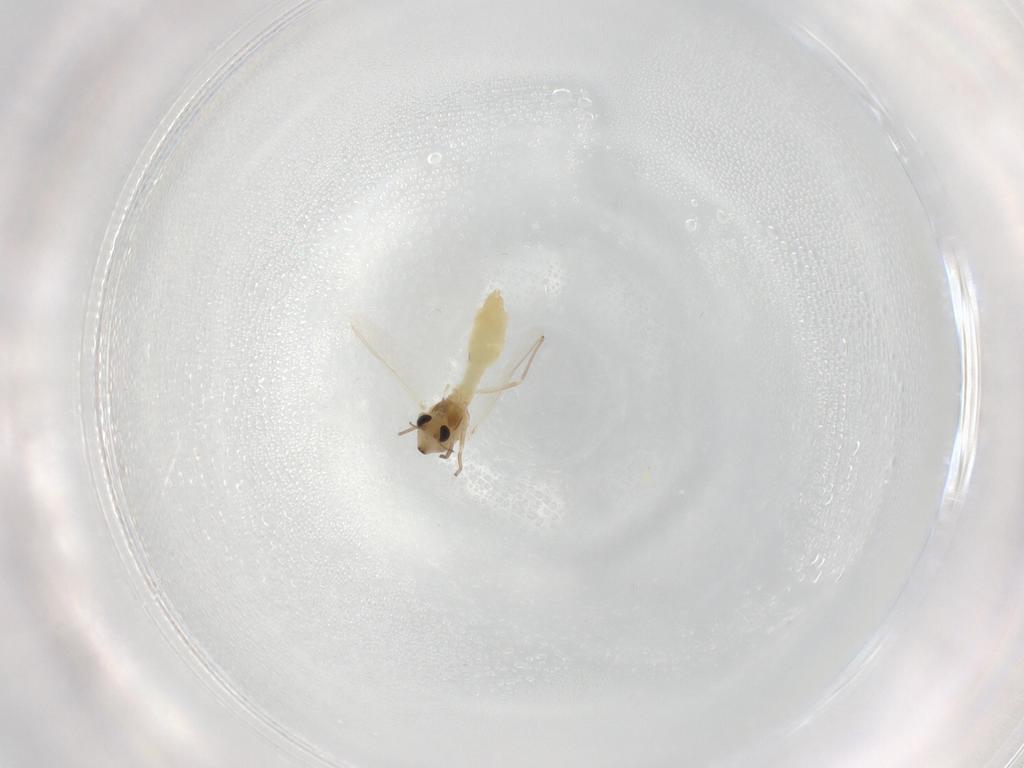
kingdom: Animalia
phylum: Arthropoda
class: Insecta
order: Diptera
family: Chironomidae
